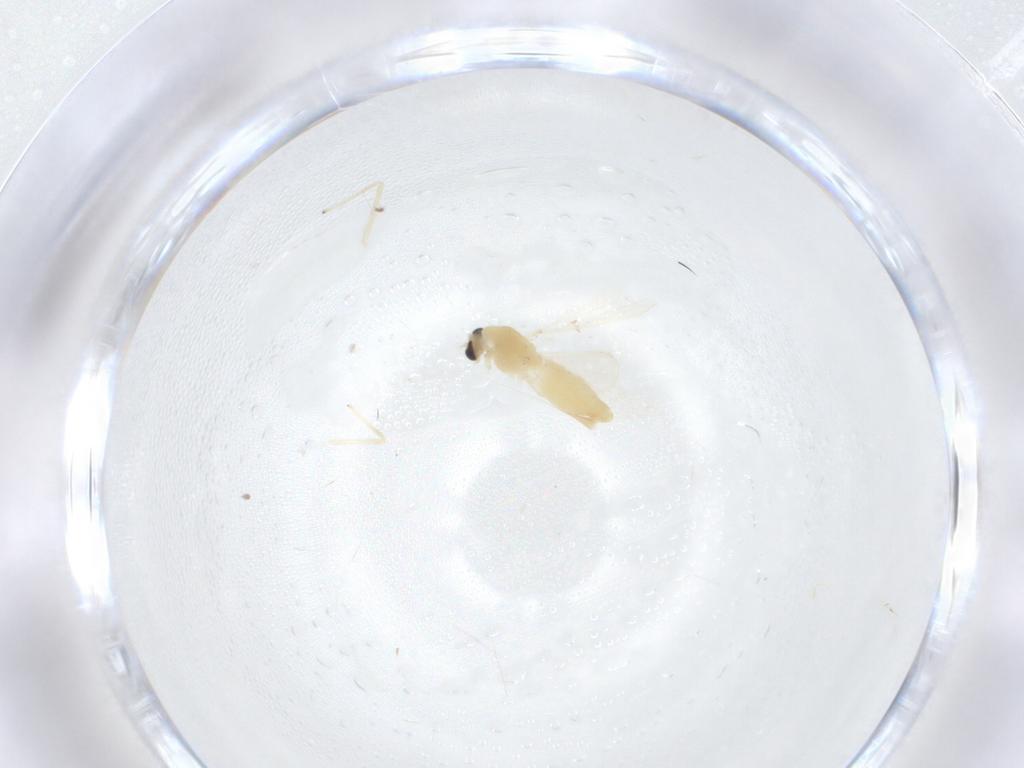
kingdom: Animalia
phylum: Arthropoda
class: Insecta
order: Diptera
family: Chironomidae
